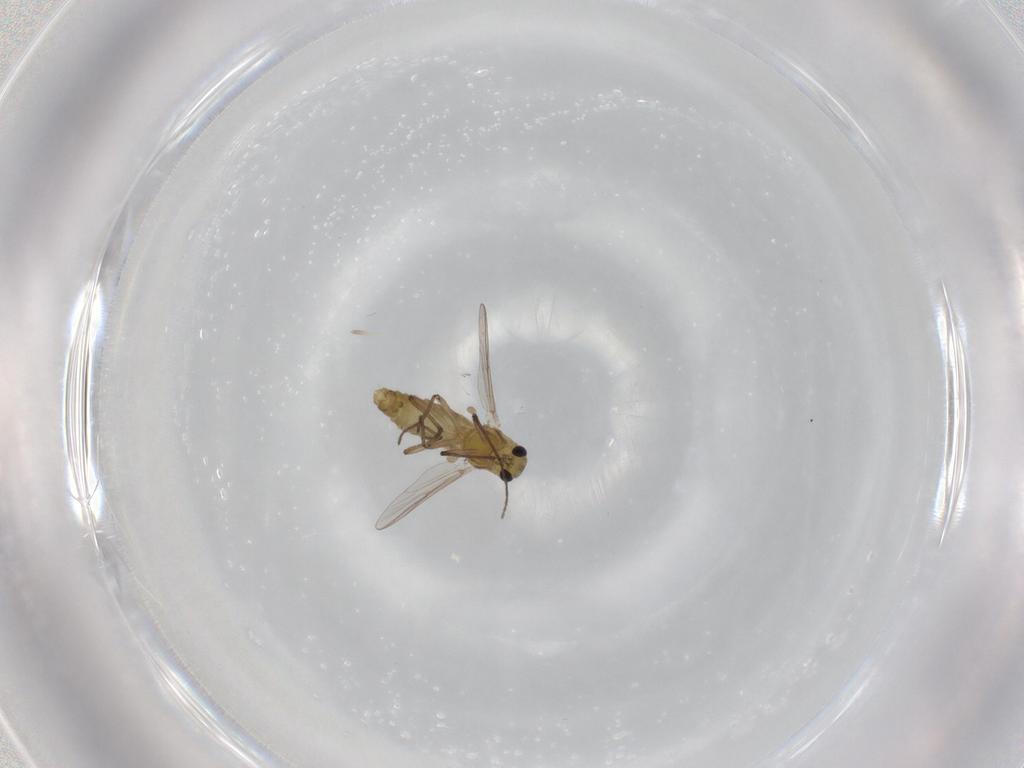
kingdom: Animalia
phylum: Arthropoda
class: Insecta
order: Diptera
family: Chironomidae
